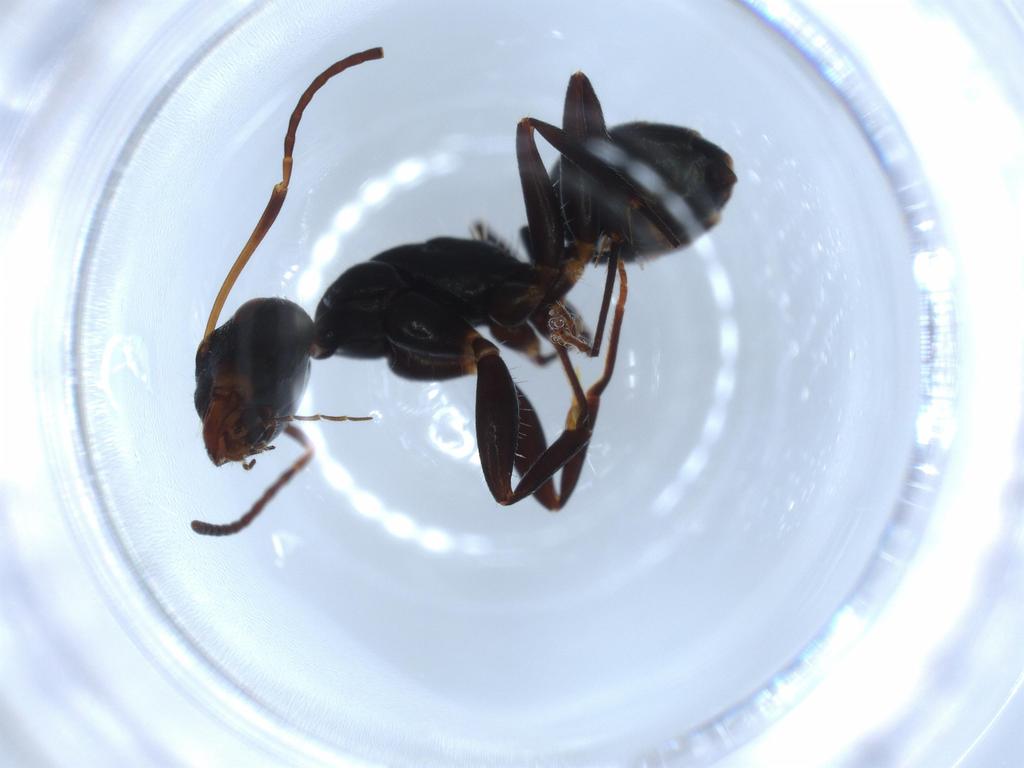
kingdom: Animalia
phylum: Arthropoda
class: Insecta
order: Hymenoptera
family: Formicidae
